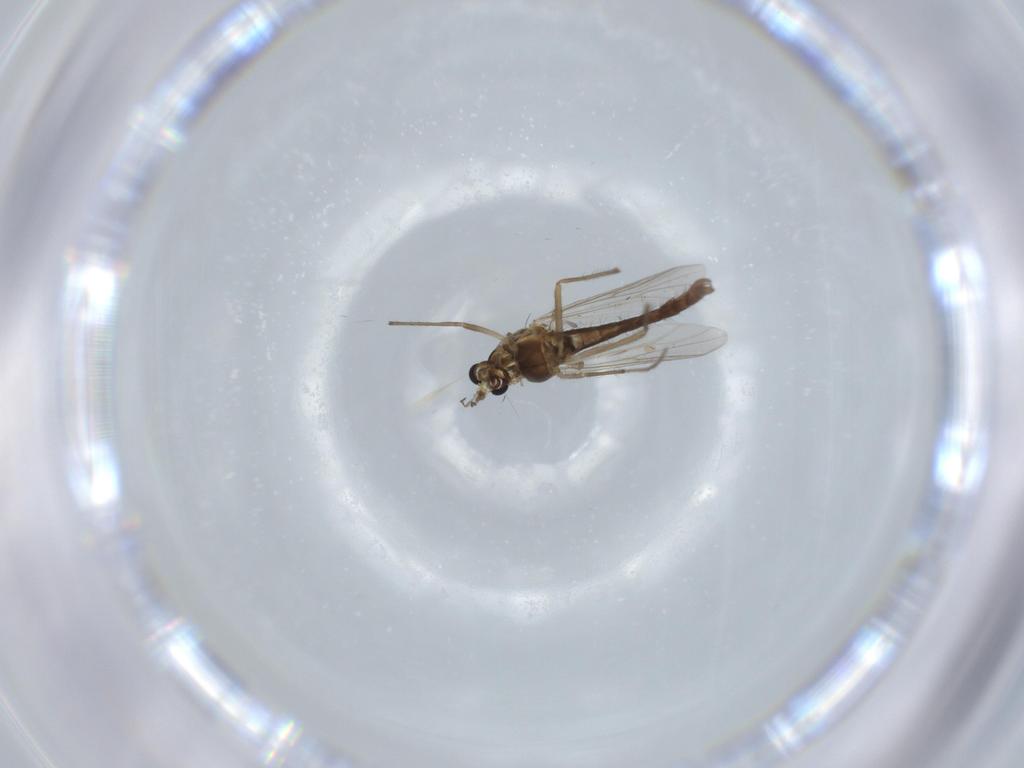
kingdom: Animalia
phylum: Arthropoda
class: Insecta
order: Diptera
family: Chironomidae
